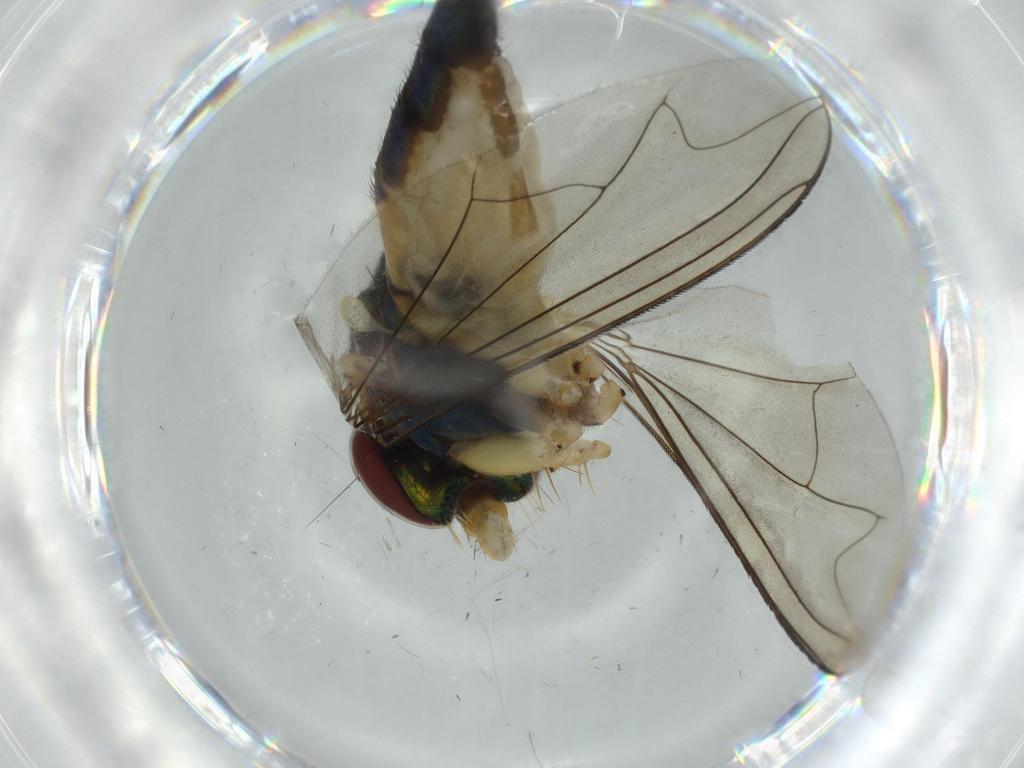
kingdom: Animalia
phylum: Arthropoda
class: Insecta
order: Diptera
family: Dolichopodidae
